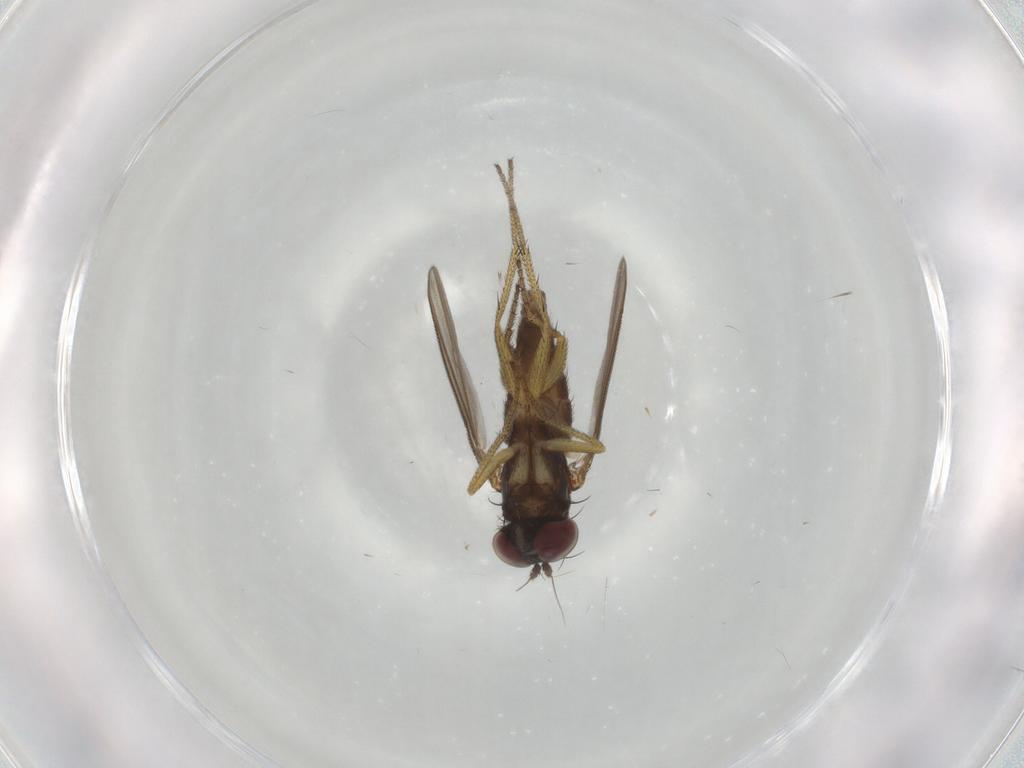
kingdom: Animalia
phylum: Arthropoda
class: Insecta
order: Diptera
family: Sciaridae
